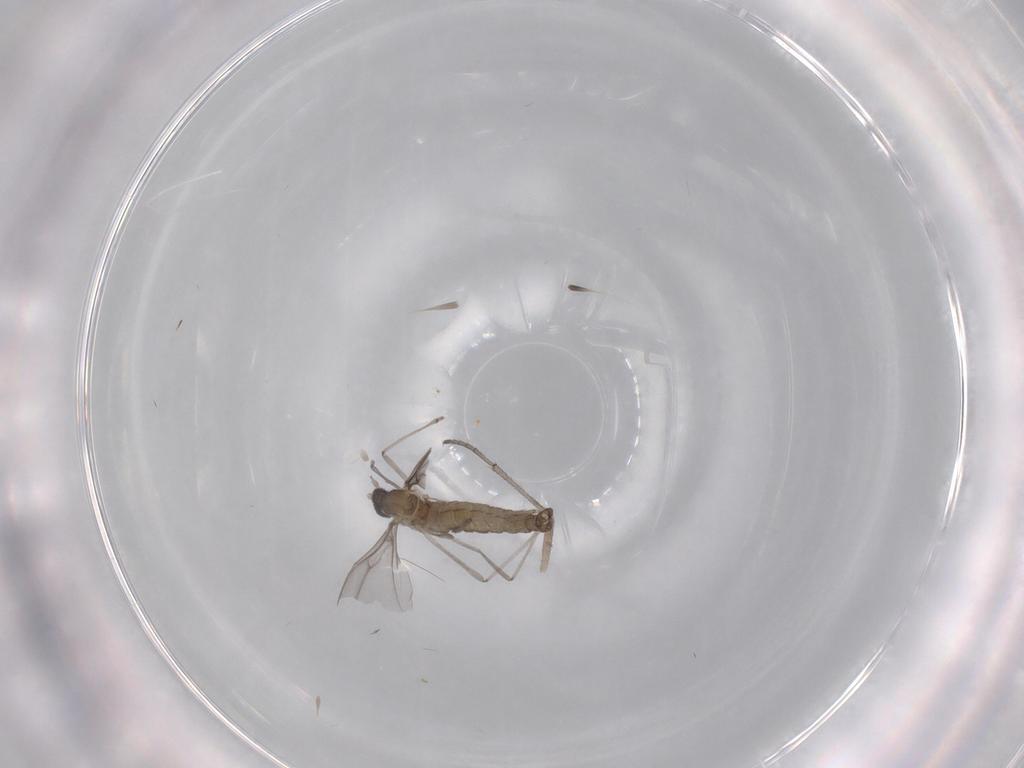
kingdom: Animalia
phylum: Arthropoda
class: Insecta
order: Diptera
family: Cecidomyiidae
